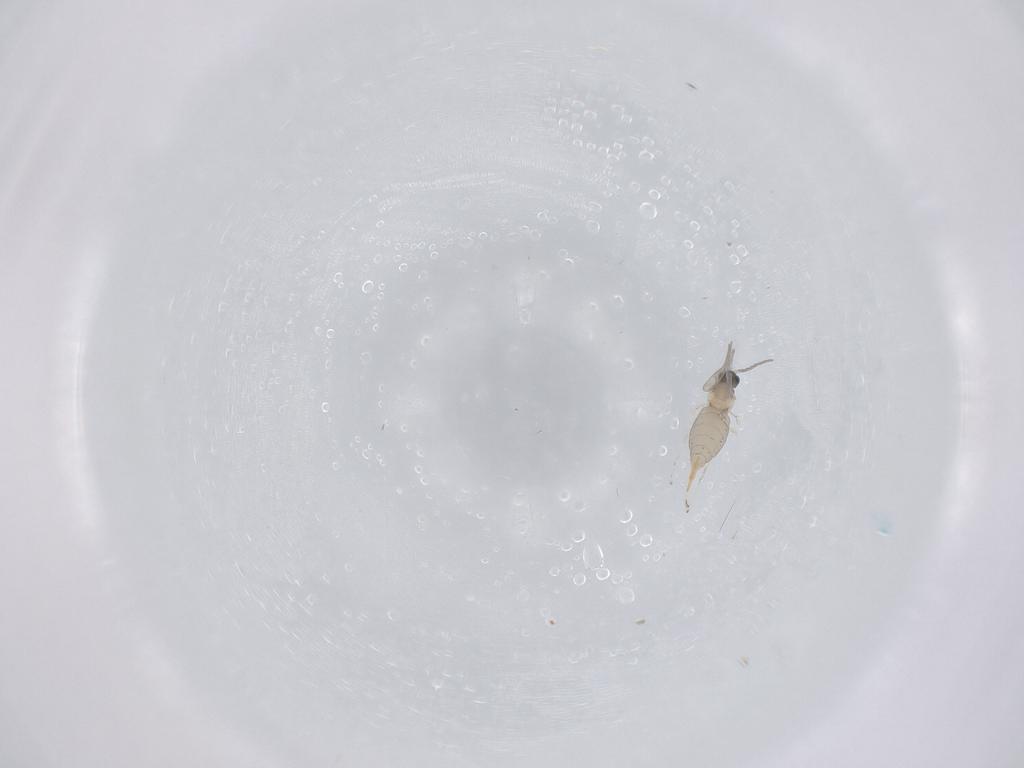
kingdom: Animalia
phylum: Arthropoda
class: Insecta
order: Diptera
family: Cecidomyiidae
